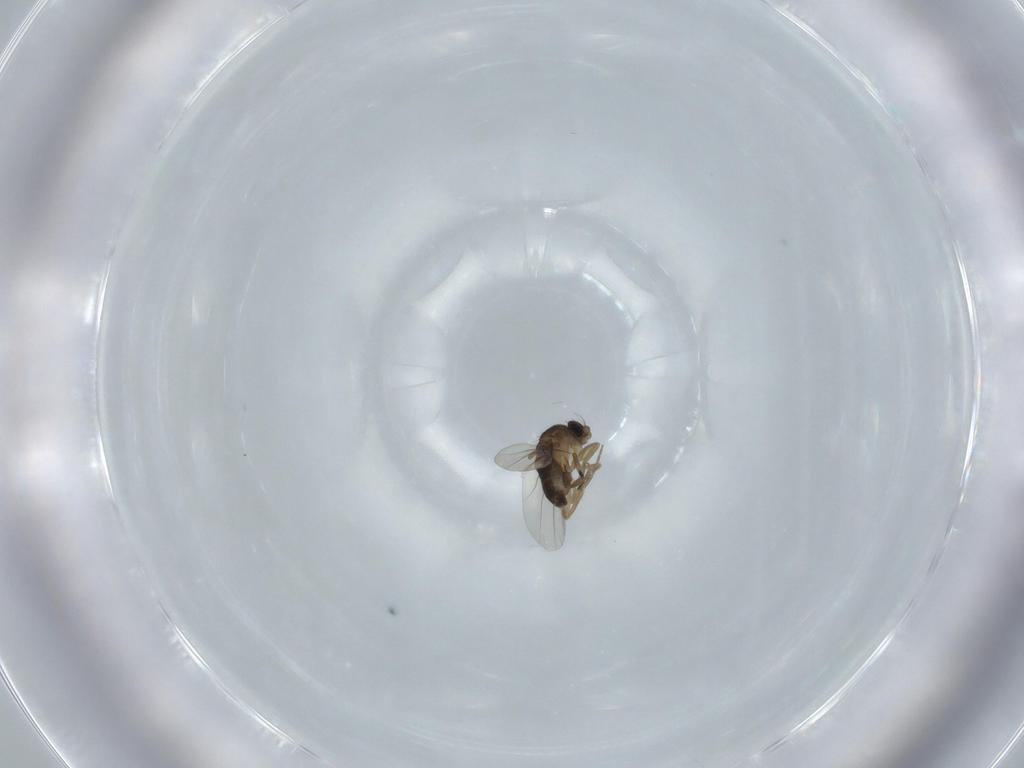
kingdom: Animalia
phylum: Arthropoda
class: Insecta
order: Diptera
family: Phoridae
